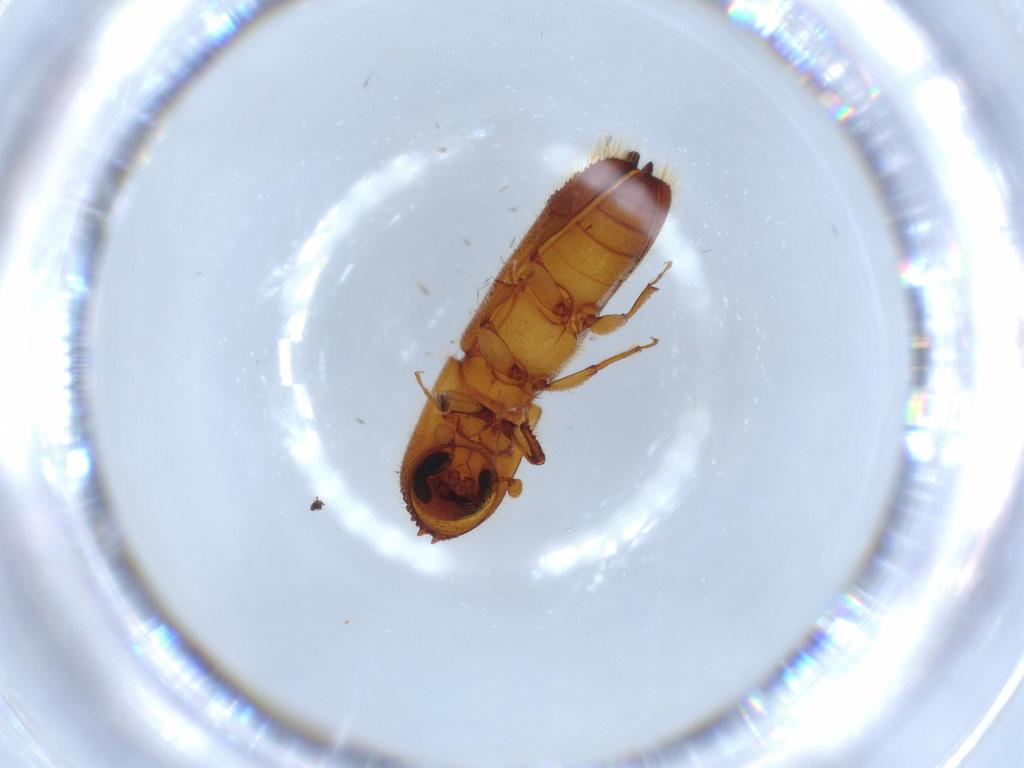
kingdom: Animalia
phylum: Arthropoda
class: Insecta
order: Coleoptera
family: Curculionidae
